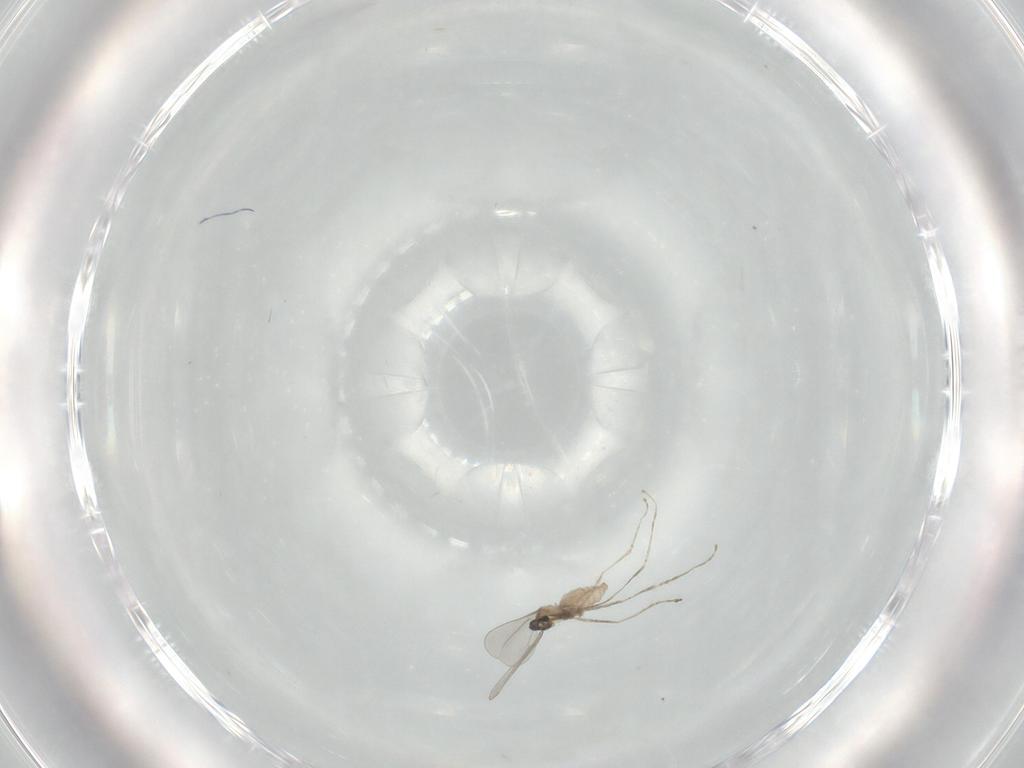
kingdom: Animalia
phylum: Arthropoda
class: Insecta
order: Diptera
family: Cecidomyiidae
